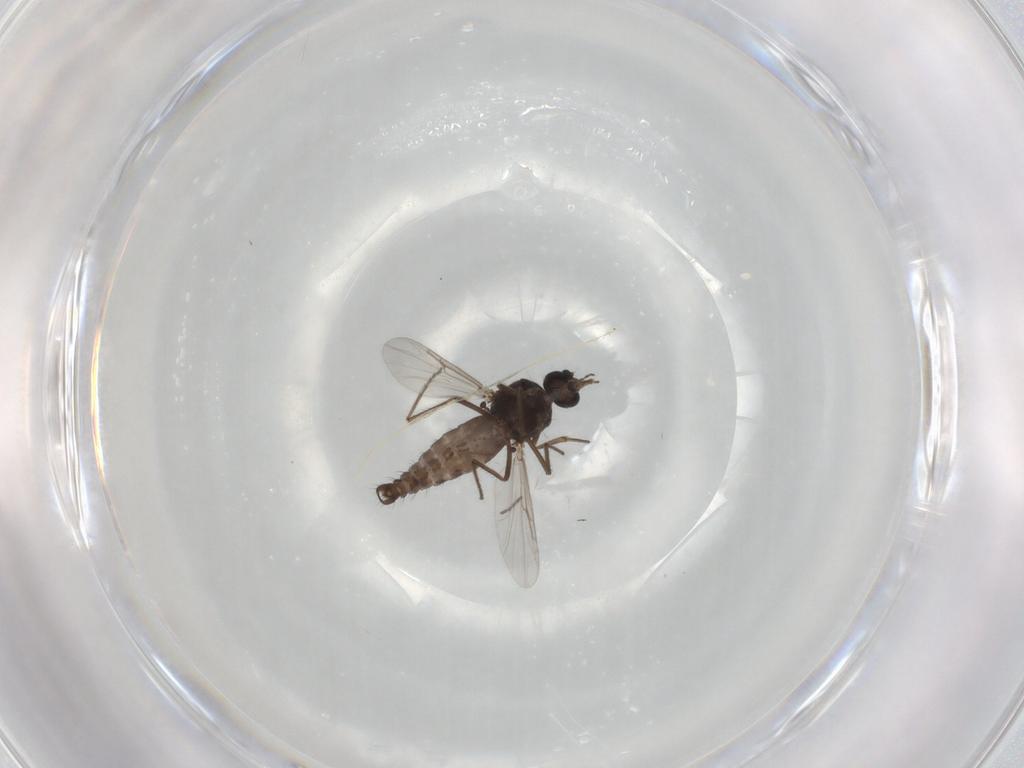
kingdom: Animalia
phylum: Arthropoda
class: Insecta
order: Diptera
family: Ceratopogonidae
